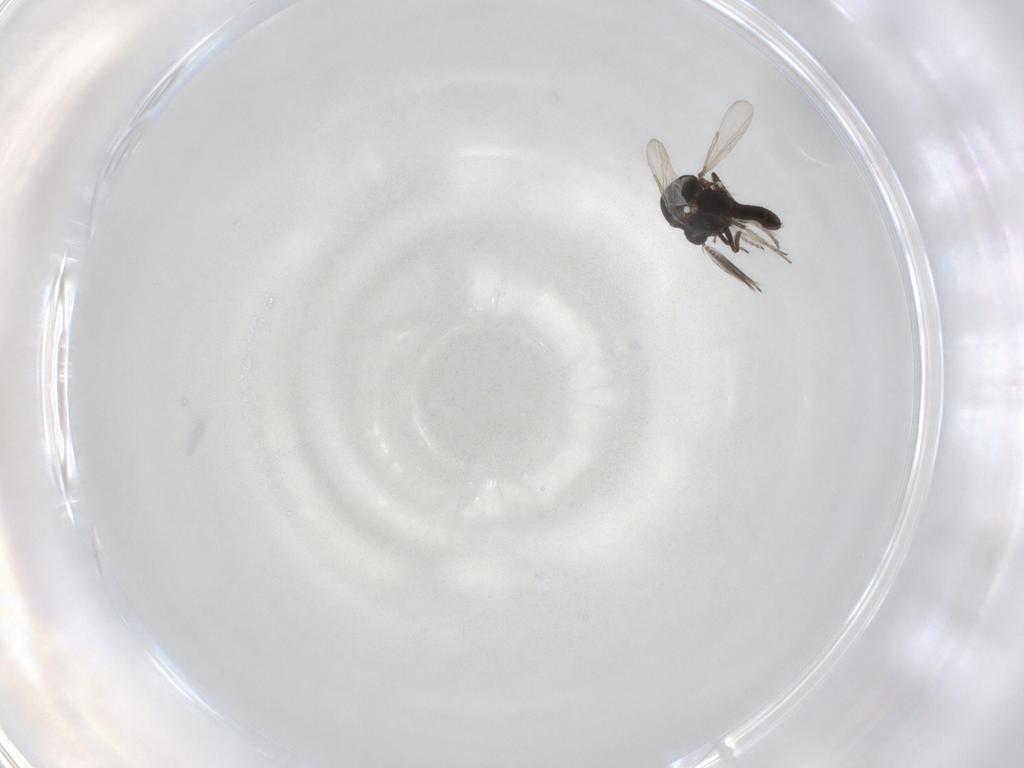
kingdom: Animalia
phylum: Arthropoda
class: Insecta
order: Diptera
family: Ceratopogonidae
